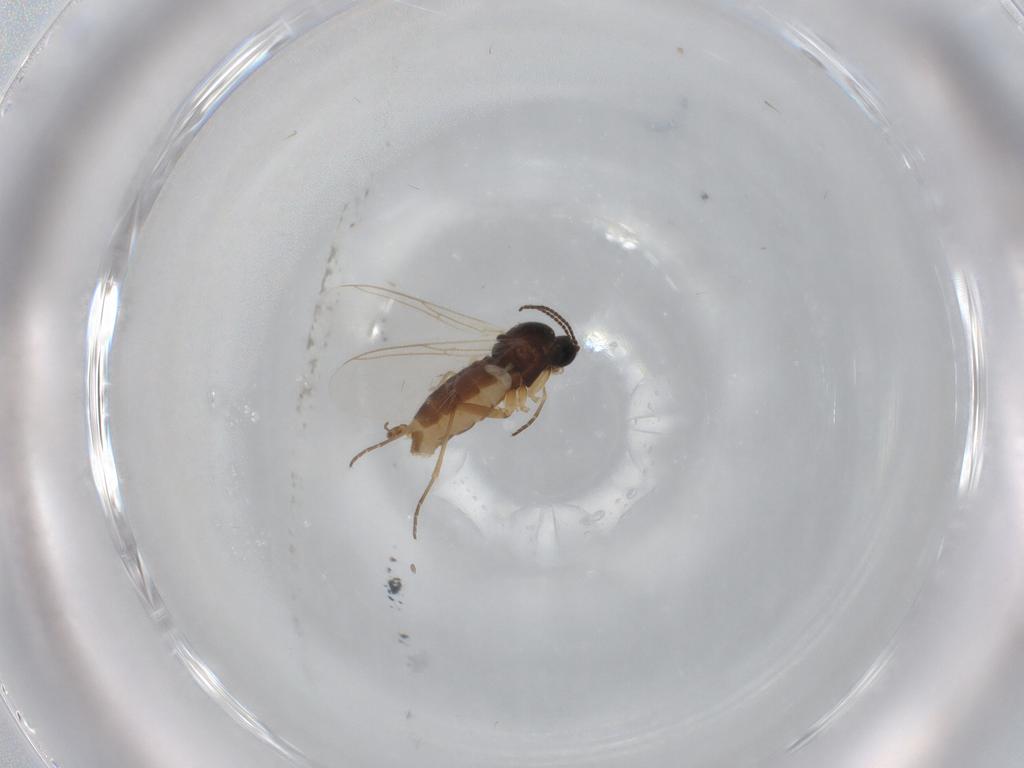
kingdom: Animalia
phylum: Arthropoda
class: Insecta
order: Diptera
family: Sciaridae
